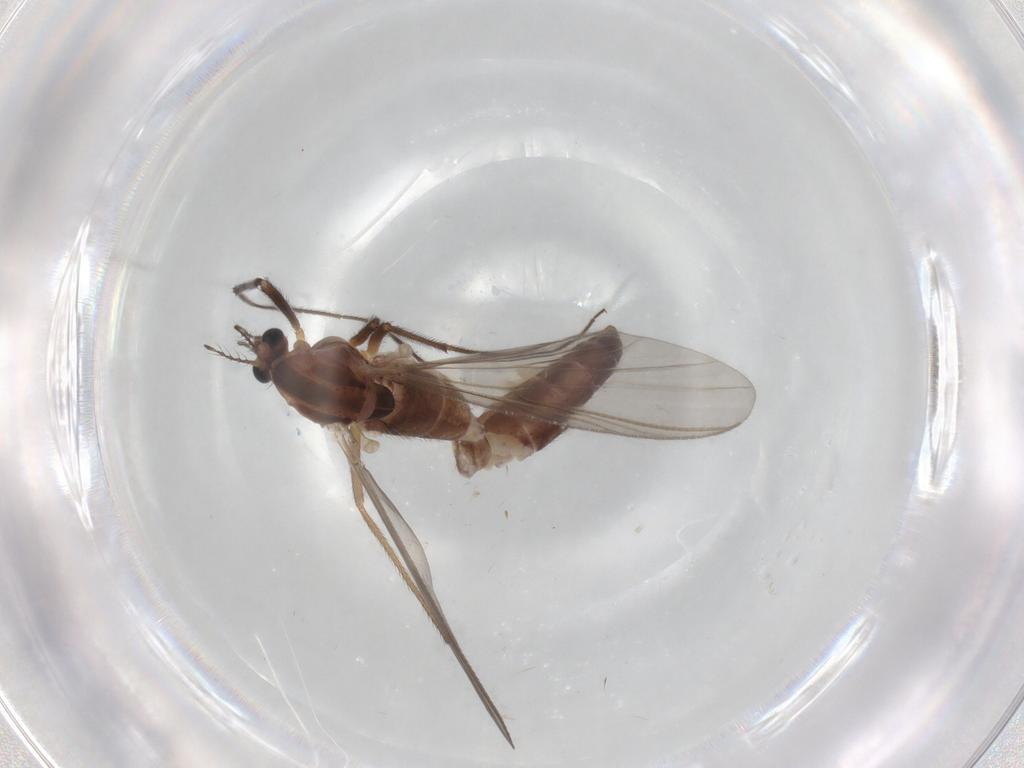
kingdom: Animalia
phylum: Arthropoda
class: Insecta
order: Diptera
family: Chironomidae
